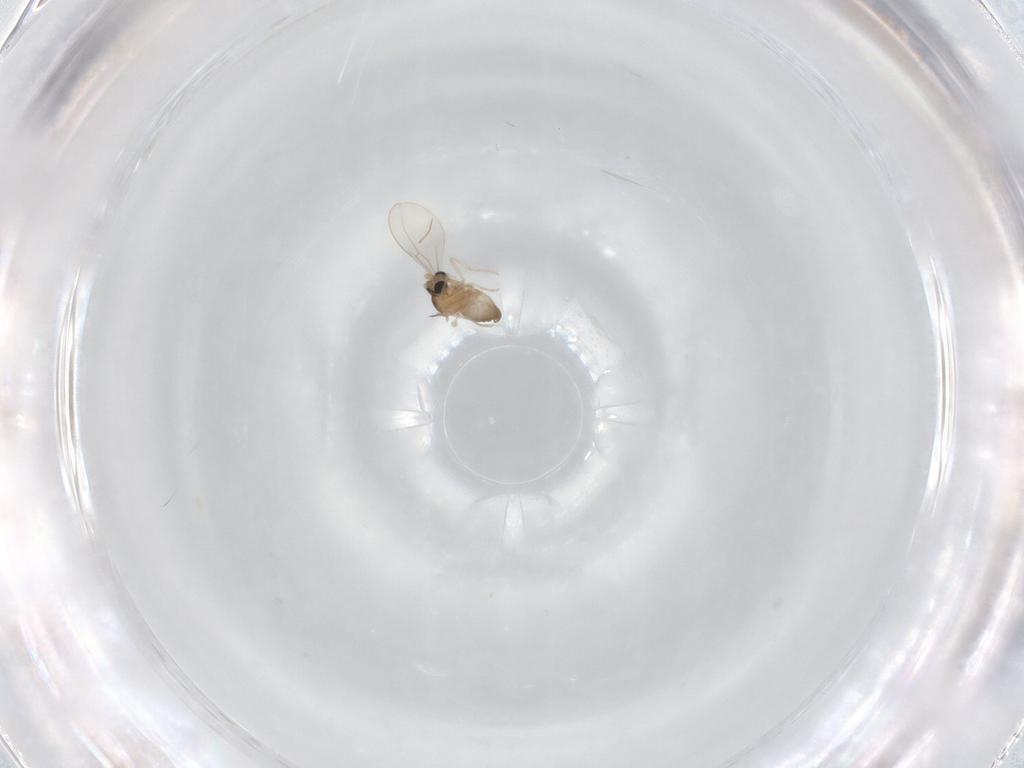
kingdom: Animalia
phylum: Arthropoda
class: Insecta
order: Diptera
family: Cecidomyiidae
